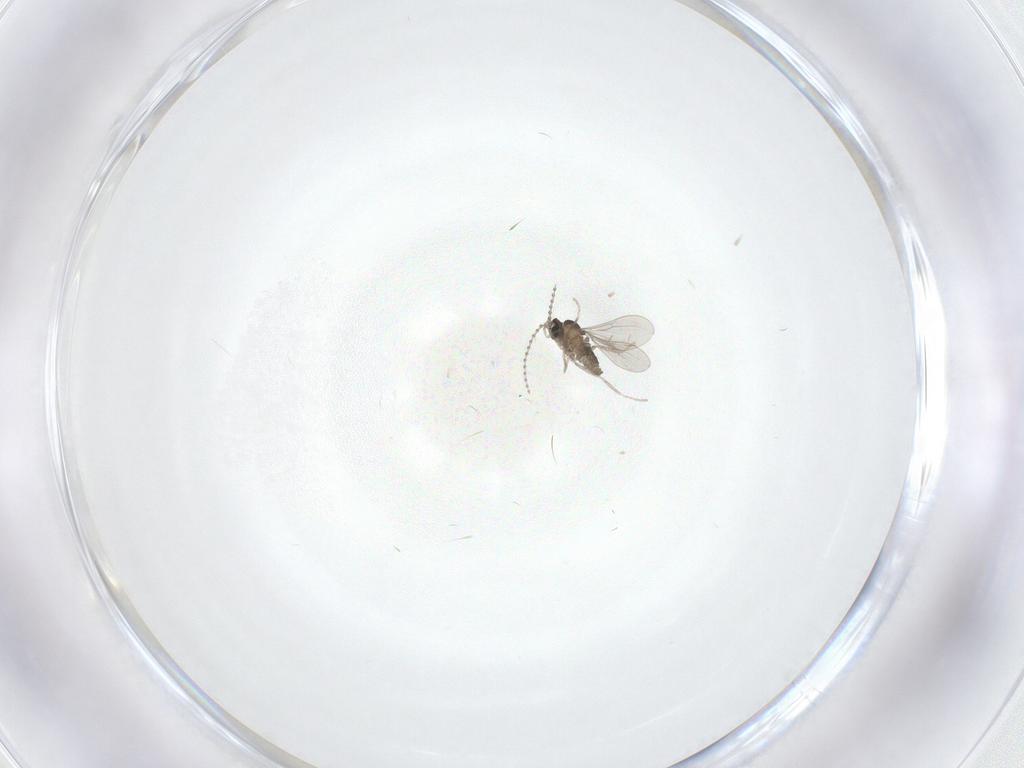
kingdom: Animalia
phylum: Arthropoda
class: Insecta
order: Diptera
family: Cecidomyiidae
